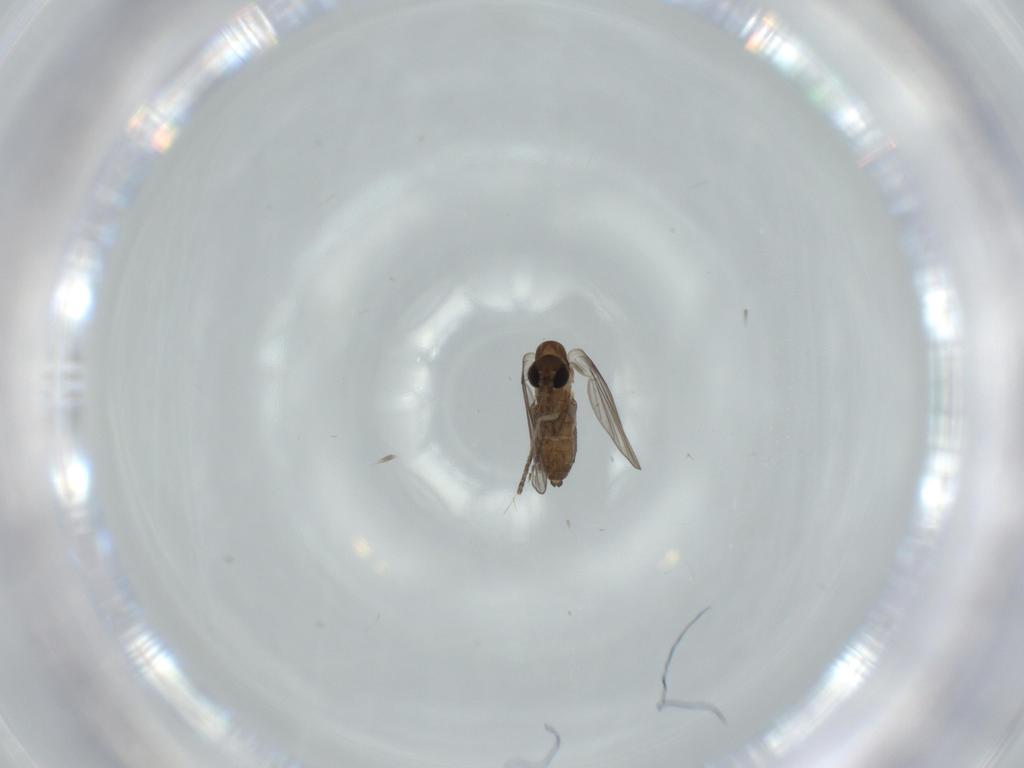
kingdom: Animalia
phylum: Arthropoda
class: Insecta
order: Diptera
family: Psychodidae
